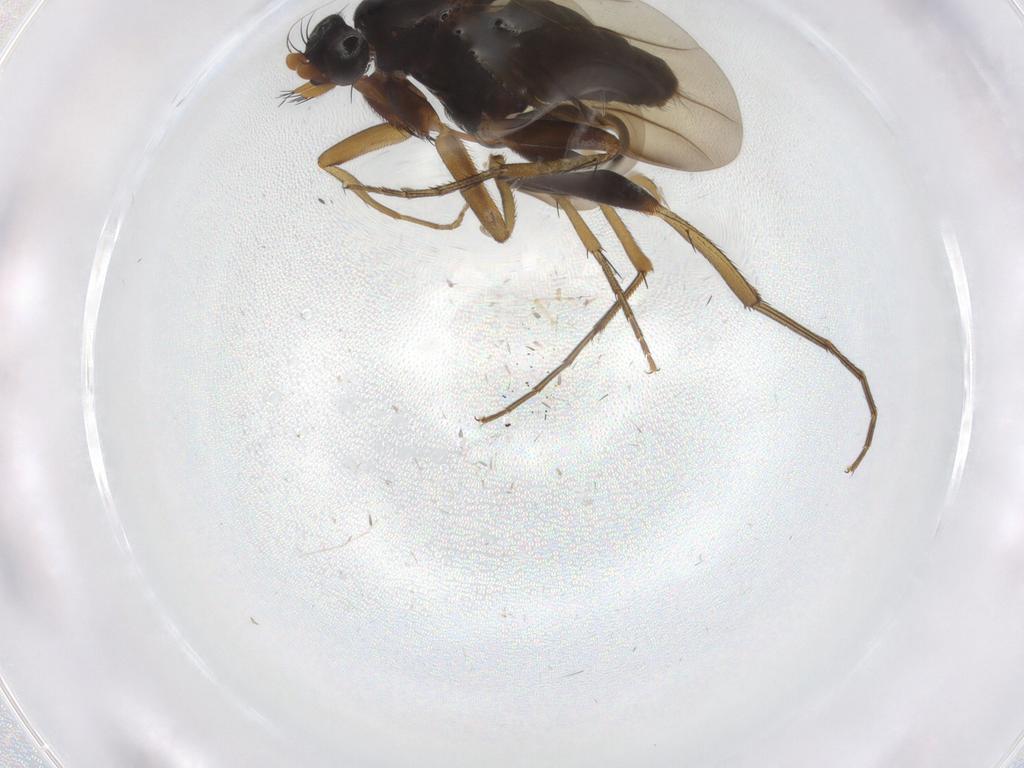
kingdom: Animalia
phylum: Arthropoda
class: Insecta
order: Diptera
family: Phoridae
